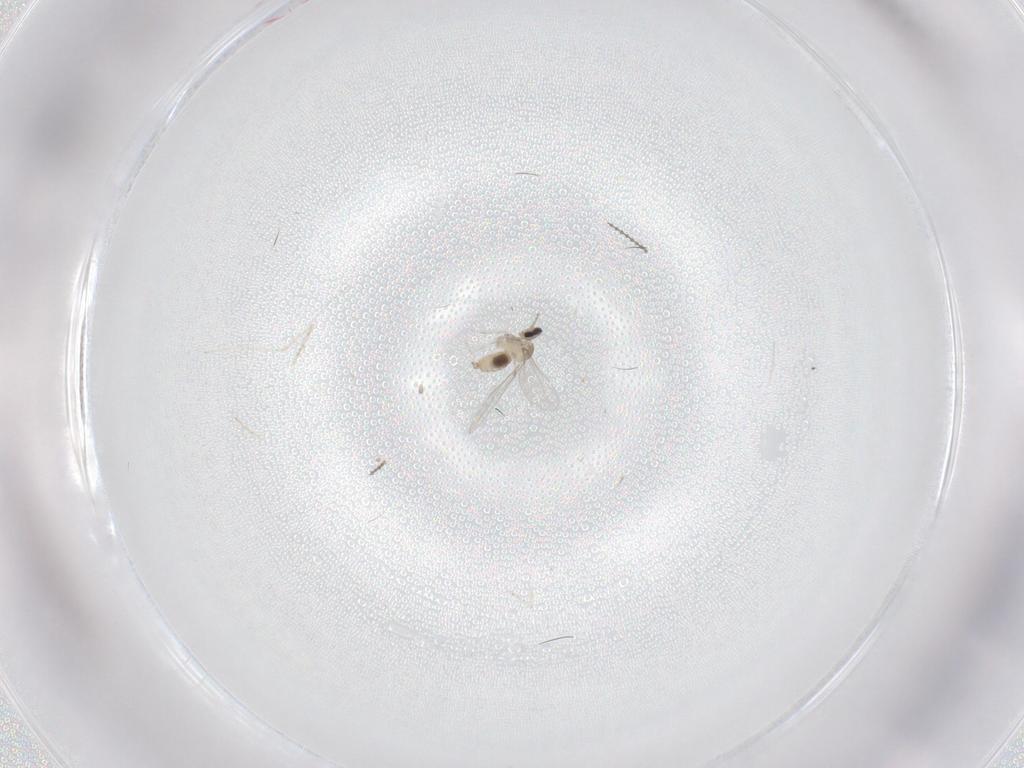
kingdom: Animalia
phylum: Arthropoda
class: Insecta
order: Diptera
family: Cecidomyiidae
